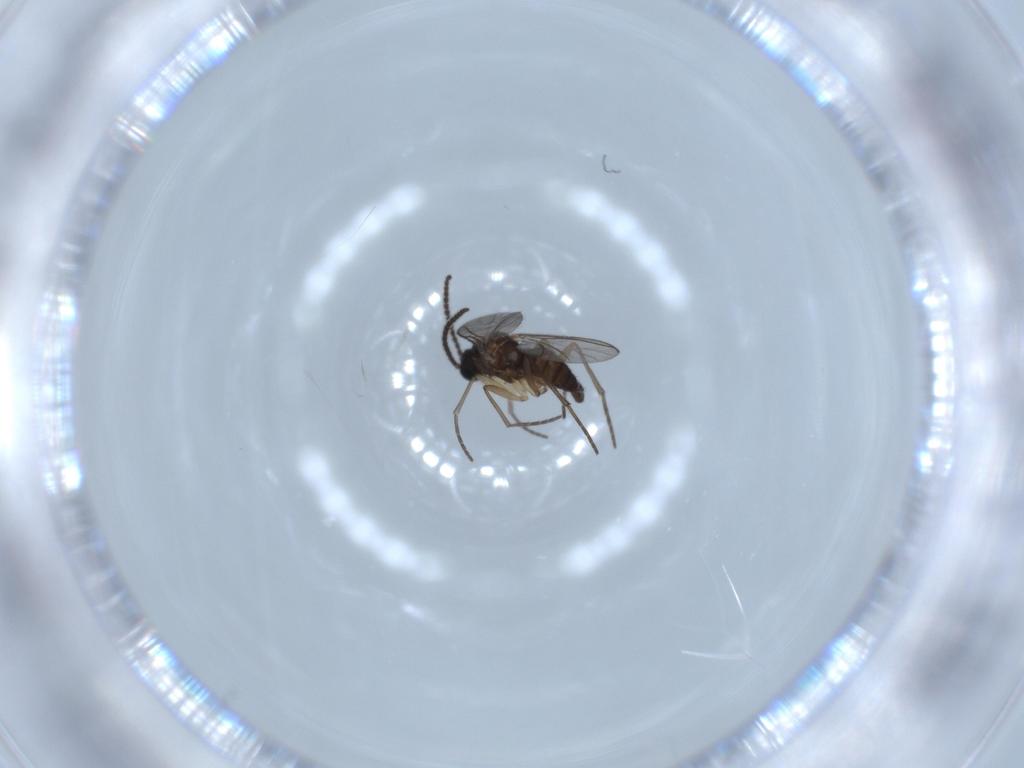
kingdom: Animalia
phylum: Arthropoda
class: Insecta
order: Diptera
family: Sciaridae
